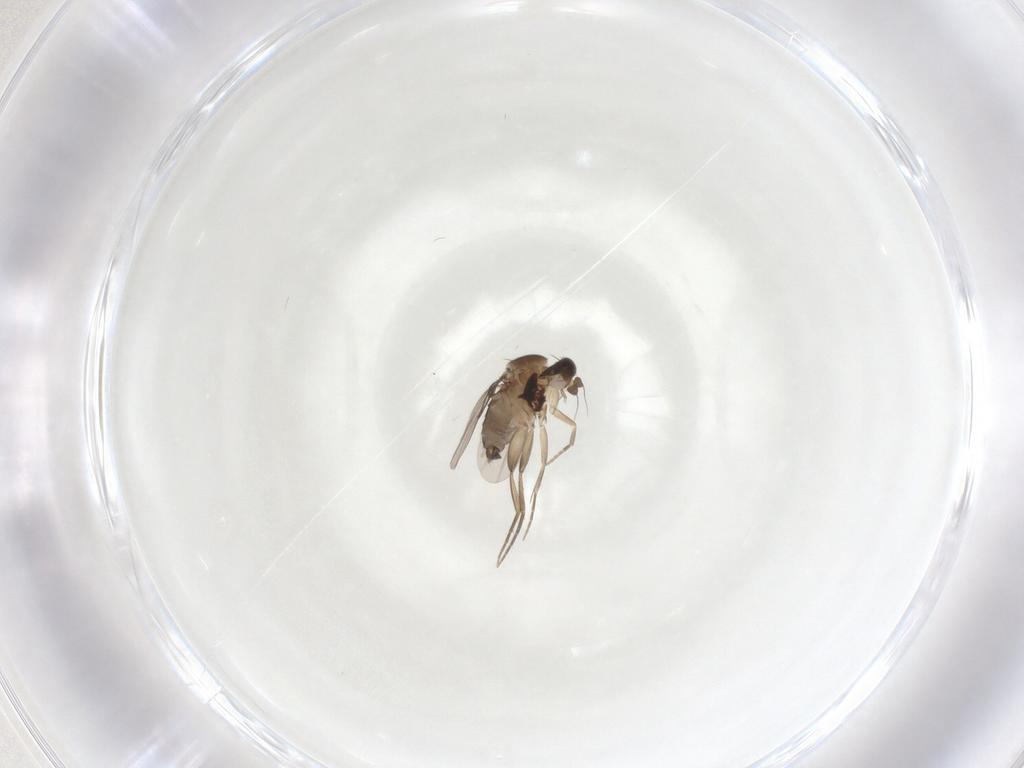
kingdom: Animalia
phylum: Arthropoda
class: Insecta
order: Diptera
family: Phoridae
